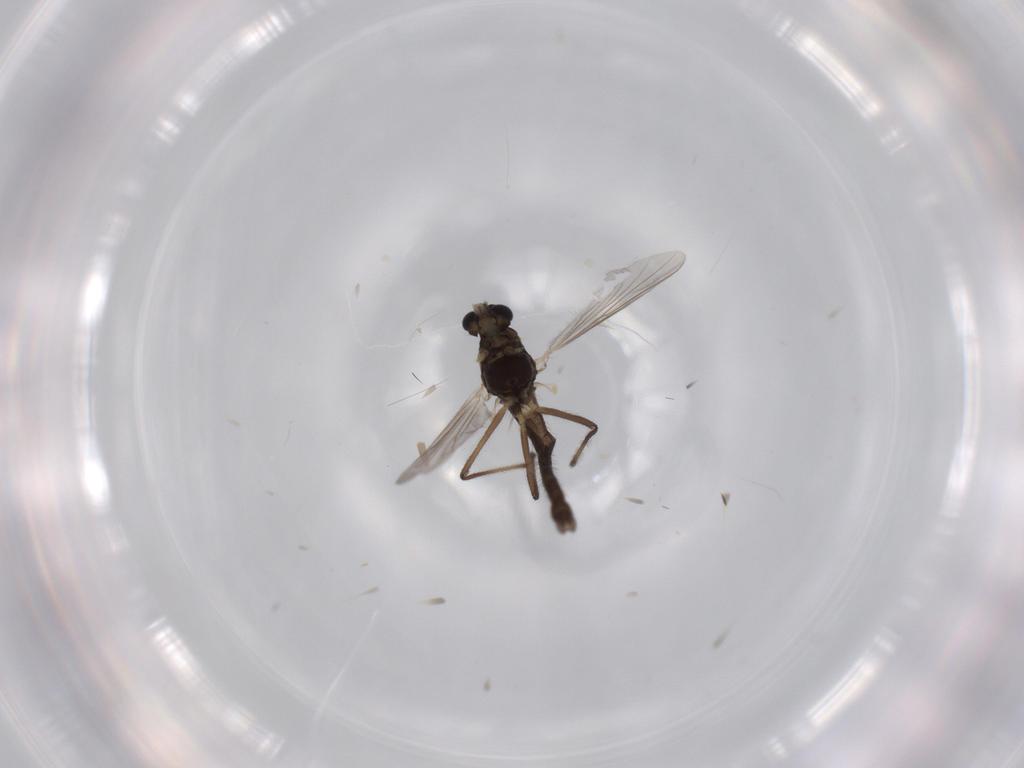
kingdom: Animalia
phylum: Arthropoda
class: Insecta
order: Diptera
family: Chironomidae
